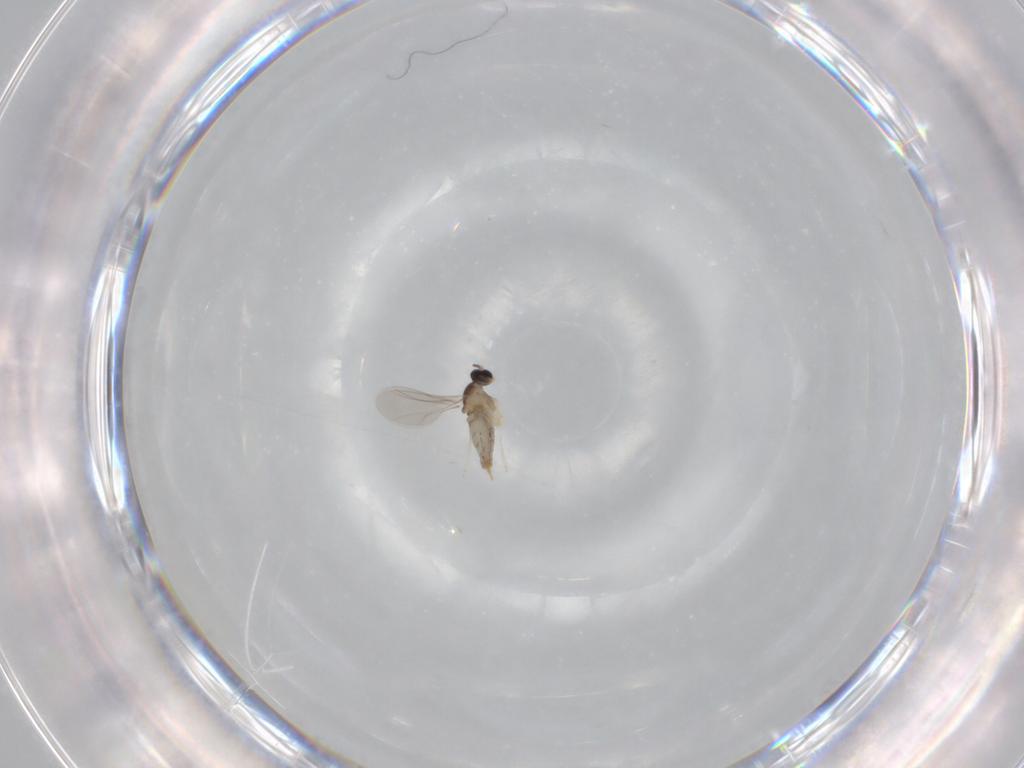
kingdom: Animalia
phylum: Arthropoda
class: Insecta
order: Diptera
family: Cecidomyiidae
